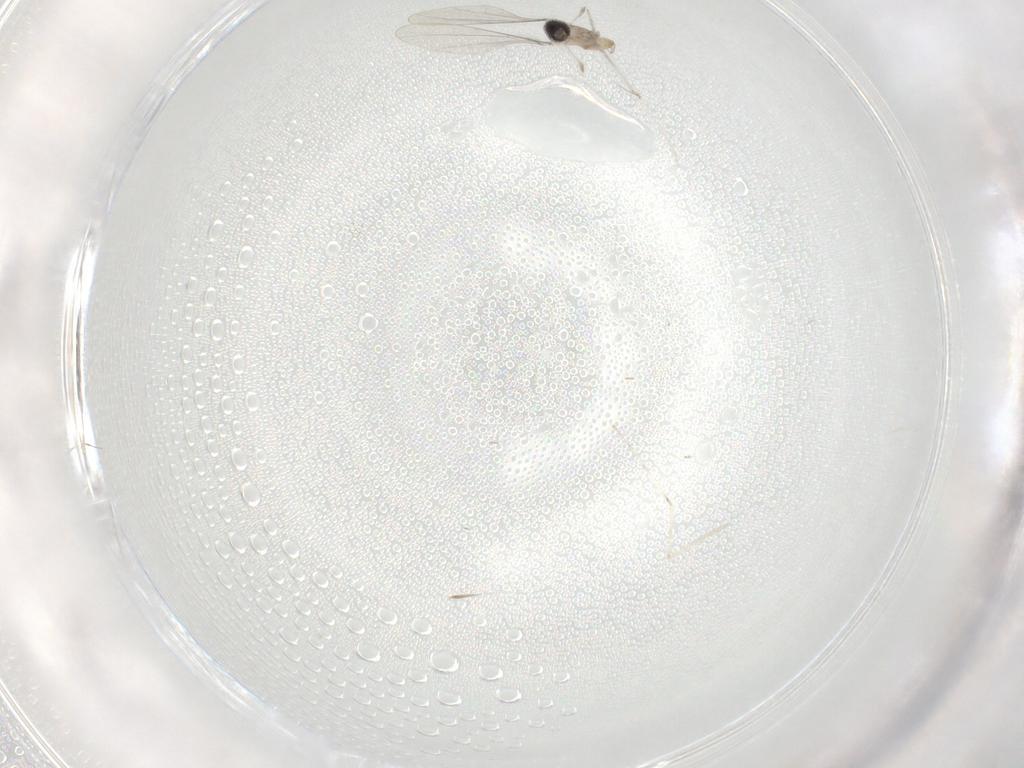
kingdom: Animalia
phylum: Arthropoda
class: Insecta
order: Diptera
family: Cecidomyiidae
